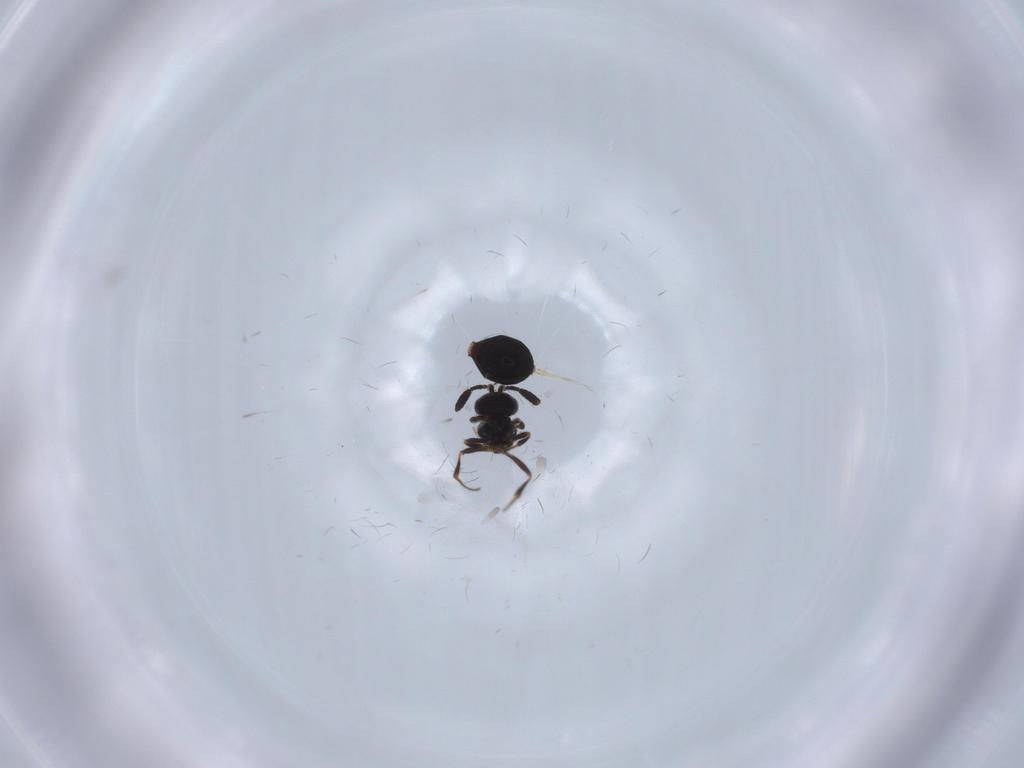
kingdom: Animalia
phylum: Arthropoda
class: Insecta
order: Hymenoptera
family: Scelionidae
